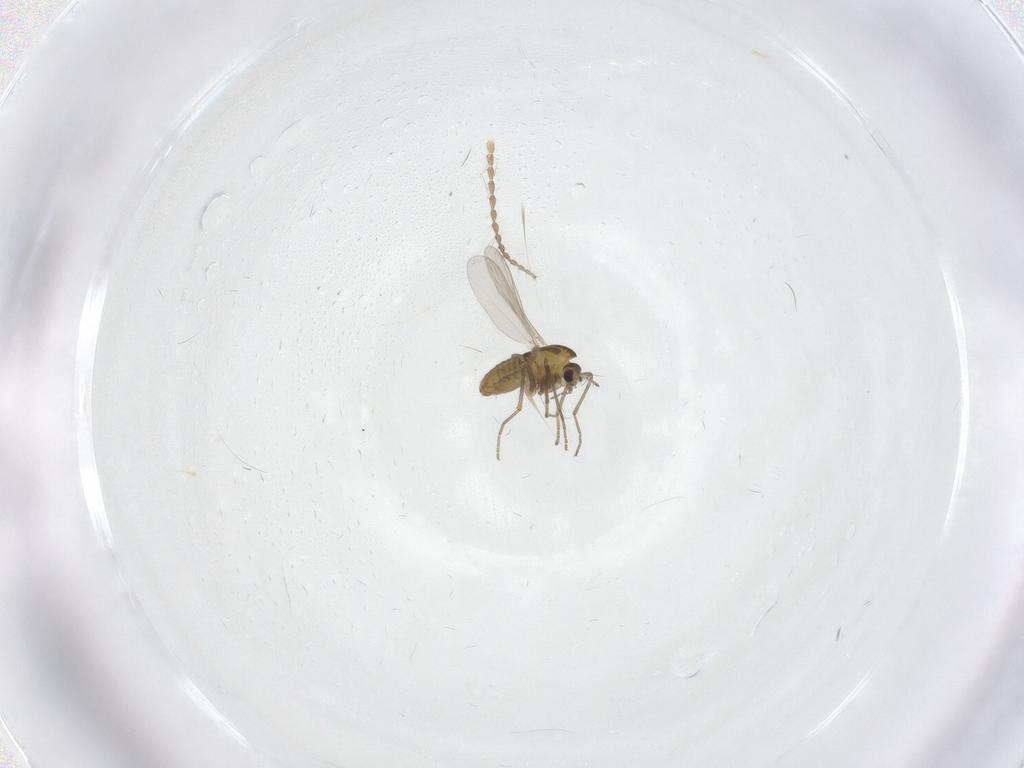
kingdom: Animalia
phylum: Arthropoda
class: Insecta
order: Diptera
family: Chironomidae
